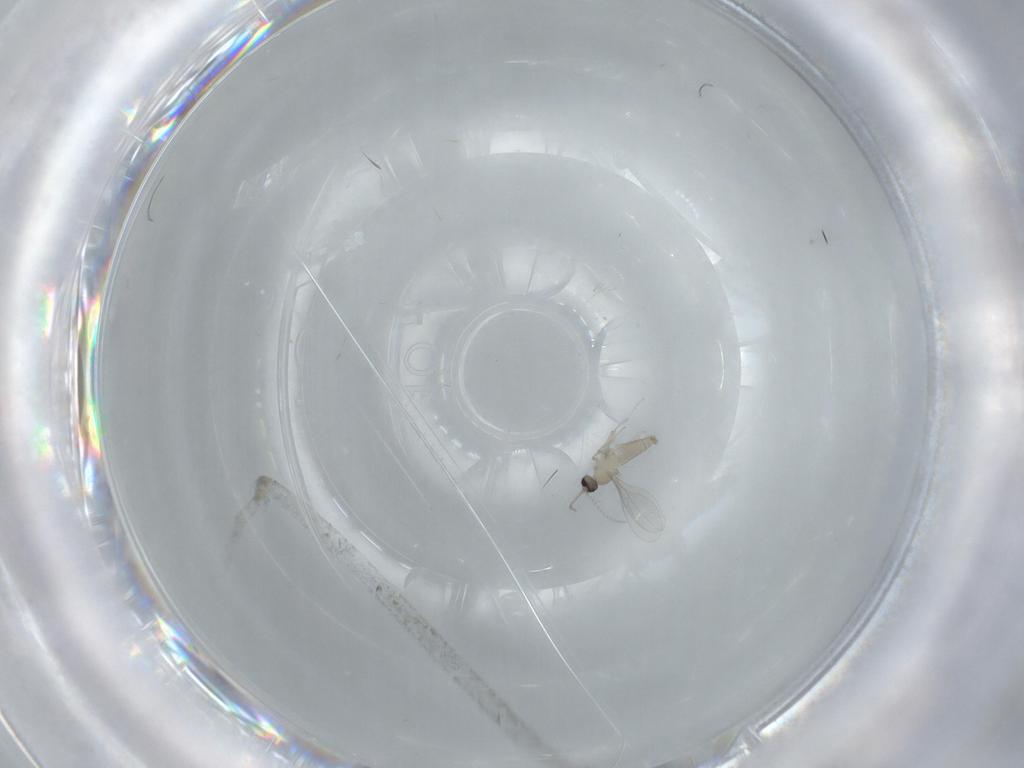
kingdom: Animalia
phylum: Arthropoda
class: Insecta
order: Diptera
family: Cecidomyiidae
